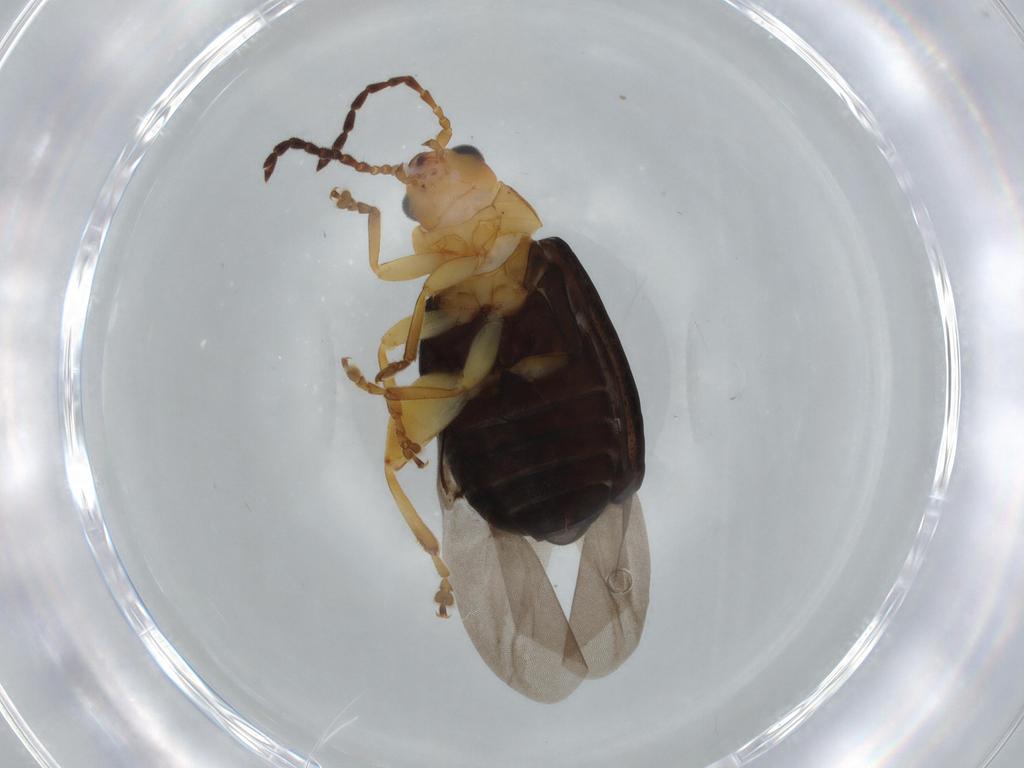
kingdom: Animalia
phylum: Arthropoda
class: Insecta
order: Coleoptera
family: Chrysomelidae
